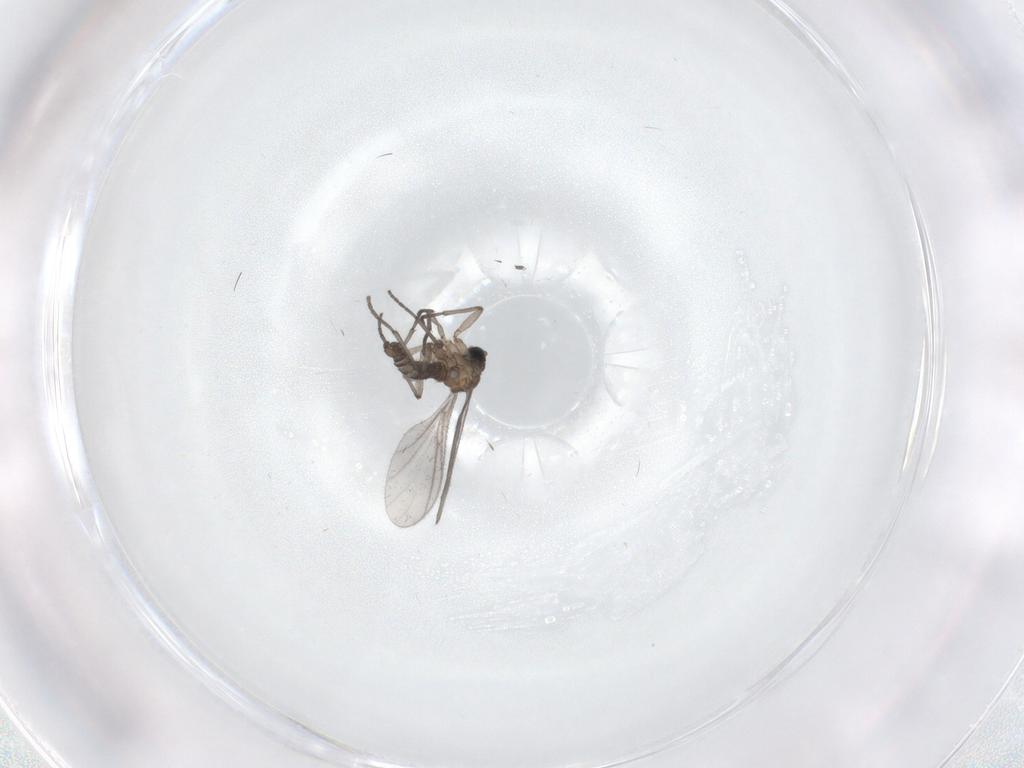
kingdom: Animalia
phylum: Arthropoda
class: Insecta
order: Diptera
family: Sciaridae
